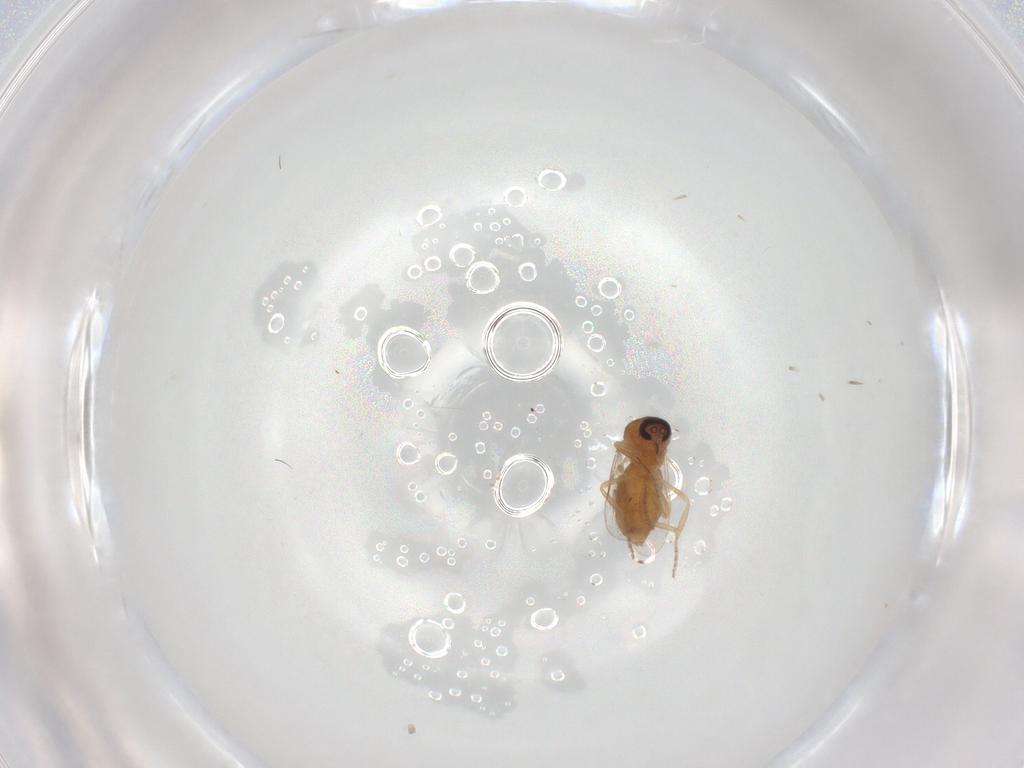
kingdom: Animalia
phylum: Arthropoda
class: Insecta
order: Diptera
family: Ceratopogonidae
